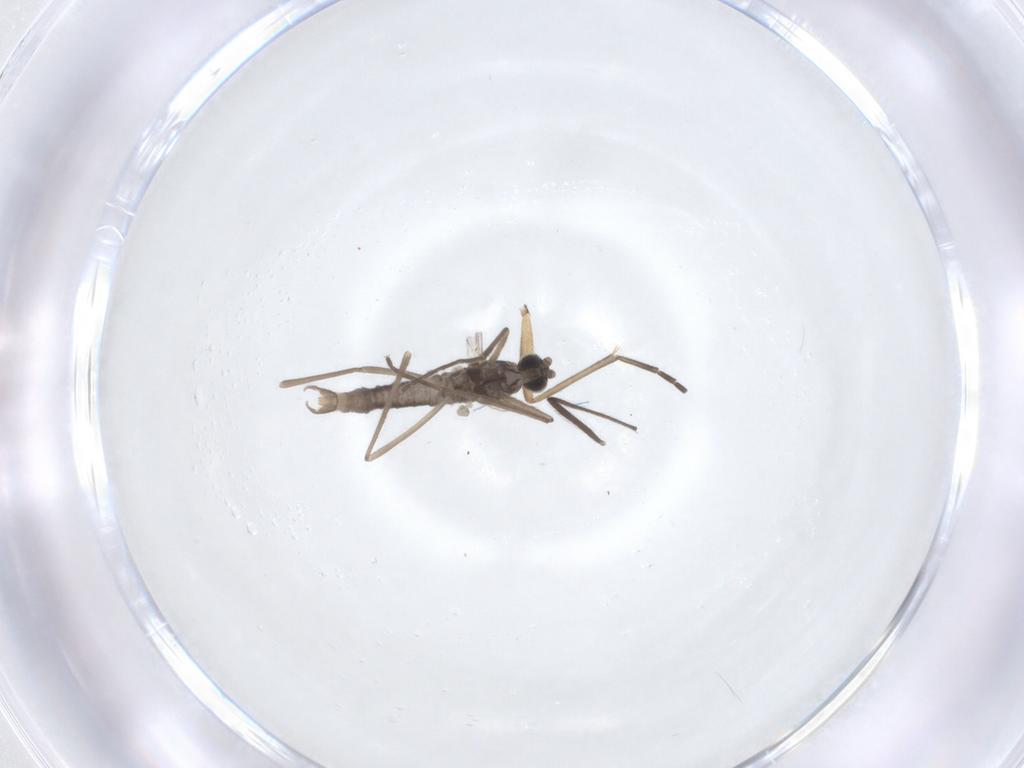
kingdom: Animalia
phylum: Arthropoda
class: Insecta
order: Diptera
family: Cecidomyiidae
